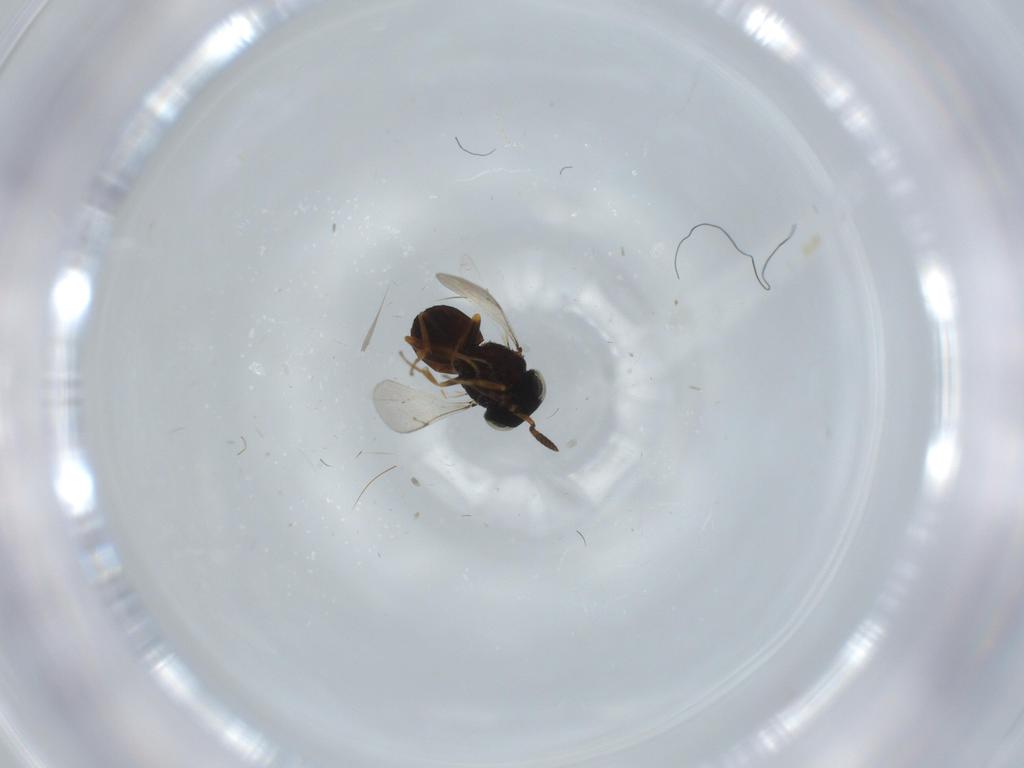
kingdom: Animalia
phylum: Arthropoda
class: Insecta
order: Hymenoptera
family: Scelionidae
